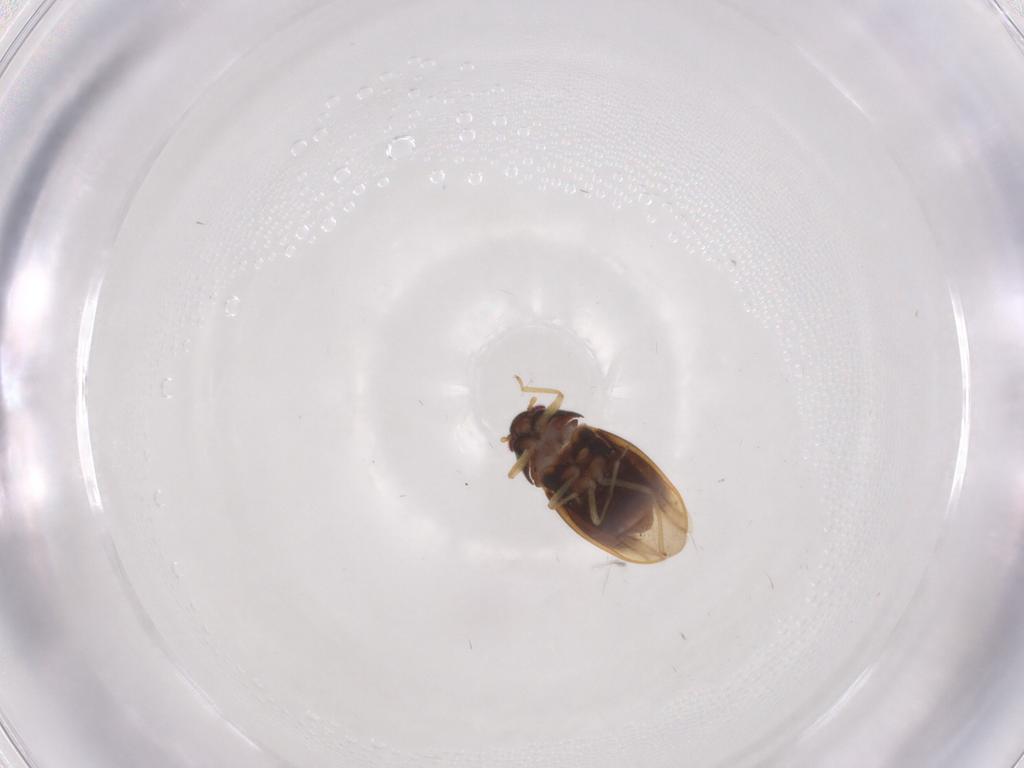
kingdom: Animalia
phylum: Arthropoda
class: Insecta
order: Hemiptera
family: Schizopteridae
